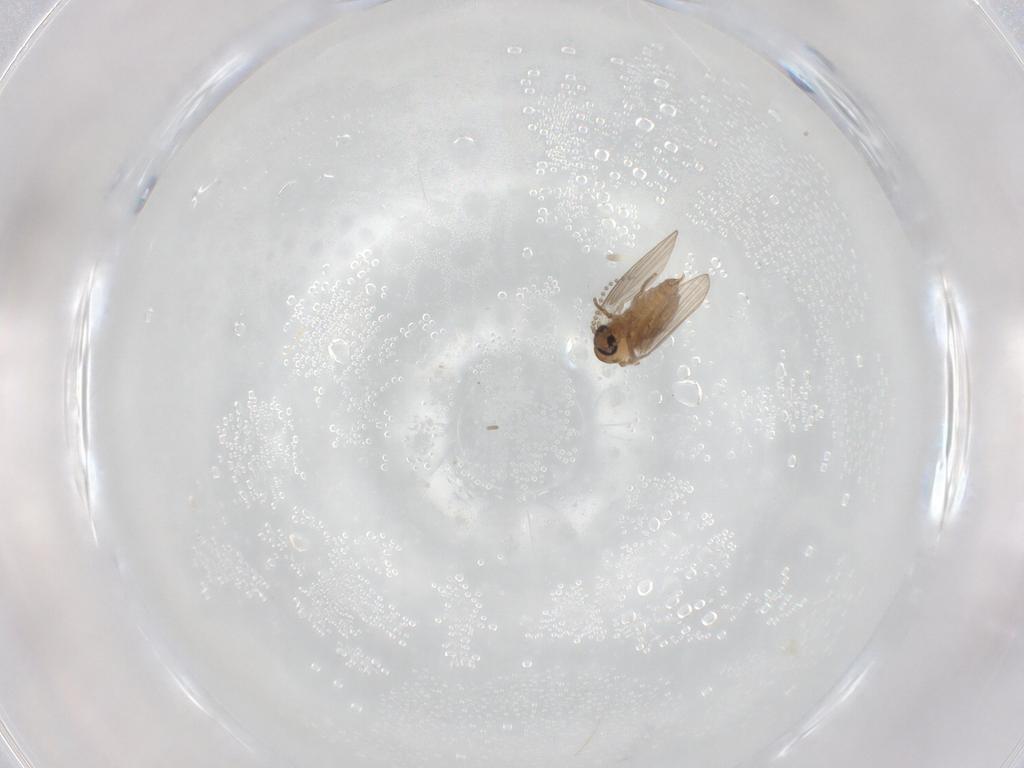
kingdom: Animalia
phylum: Arthropoda
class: Insecta
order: Diptera
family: Psychodidae
